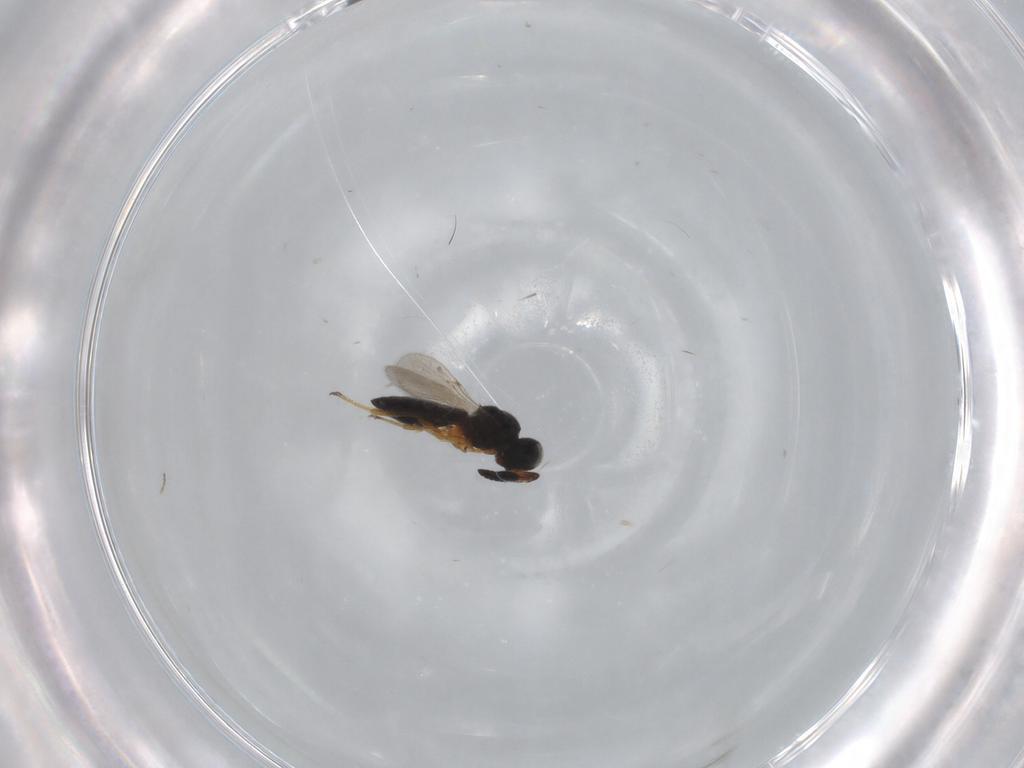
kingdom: Animalia
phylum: Arthropoda
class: Insecta
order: Hymenoptera
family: Scelionidae
